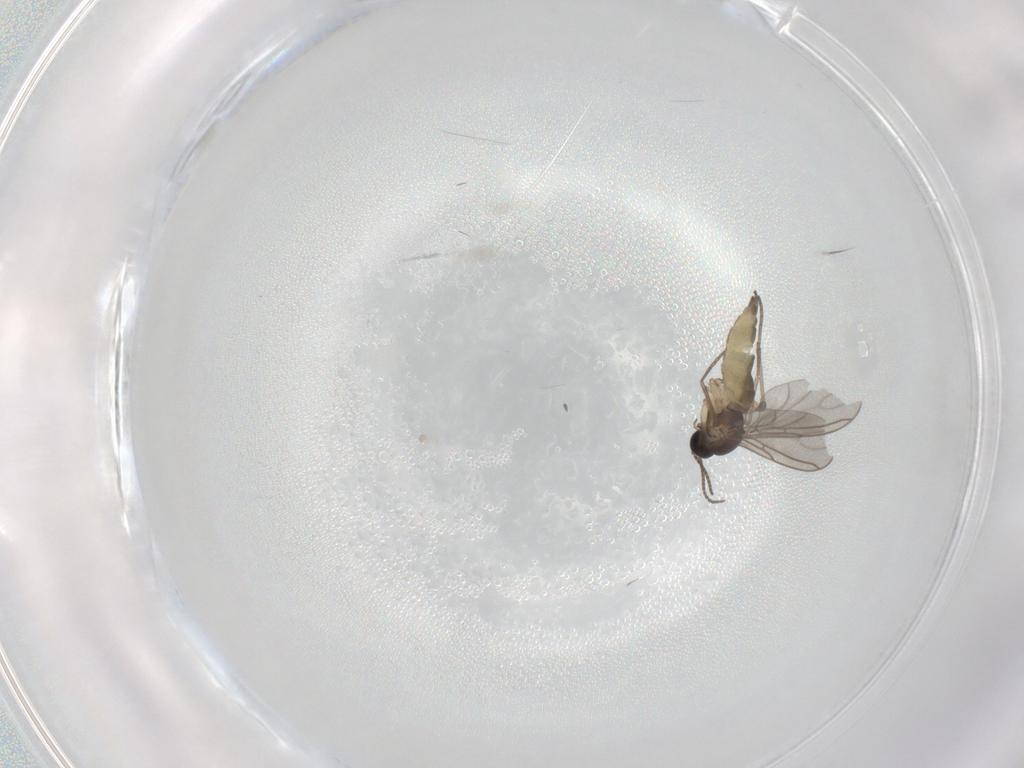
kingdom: Animalia
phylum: Arthropoda
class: Insecta
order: Diptera
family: Sciaridae
